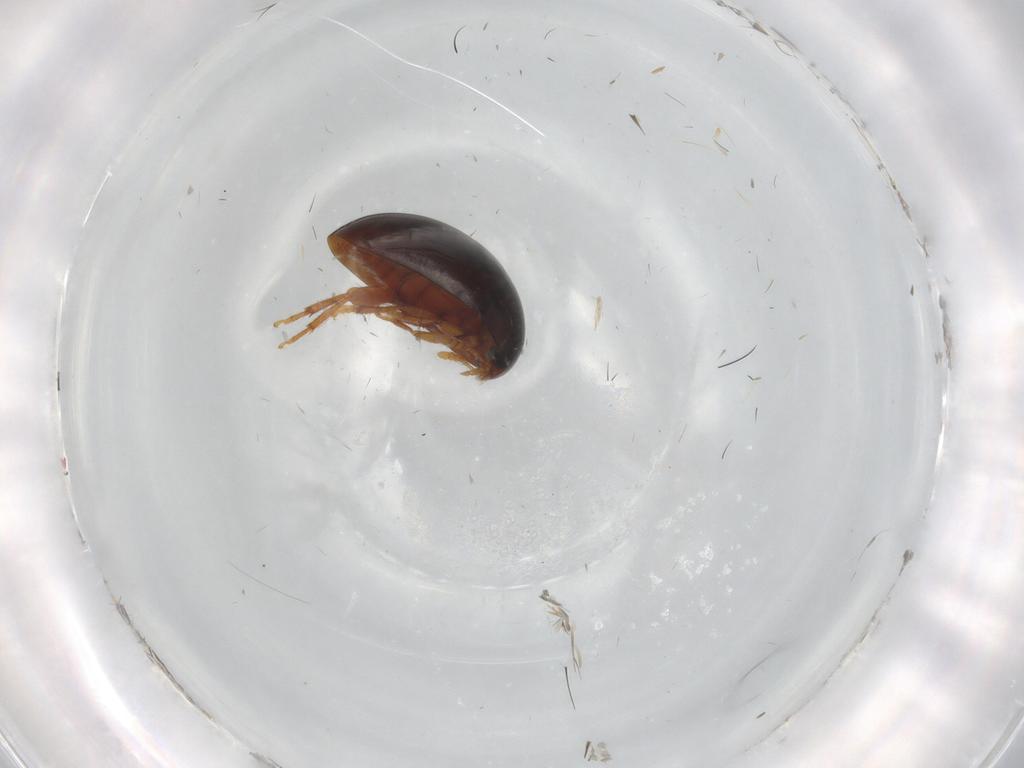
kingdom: Animalia
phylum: Arthropoda
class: Insecta
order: Coleoptera
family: Phalacridae
